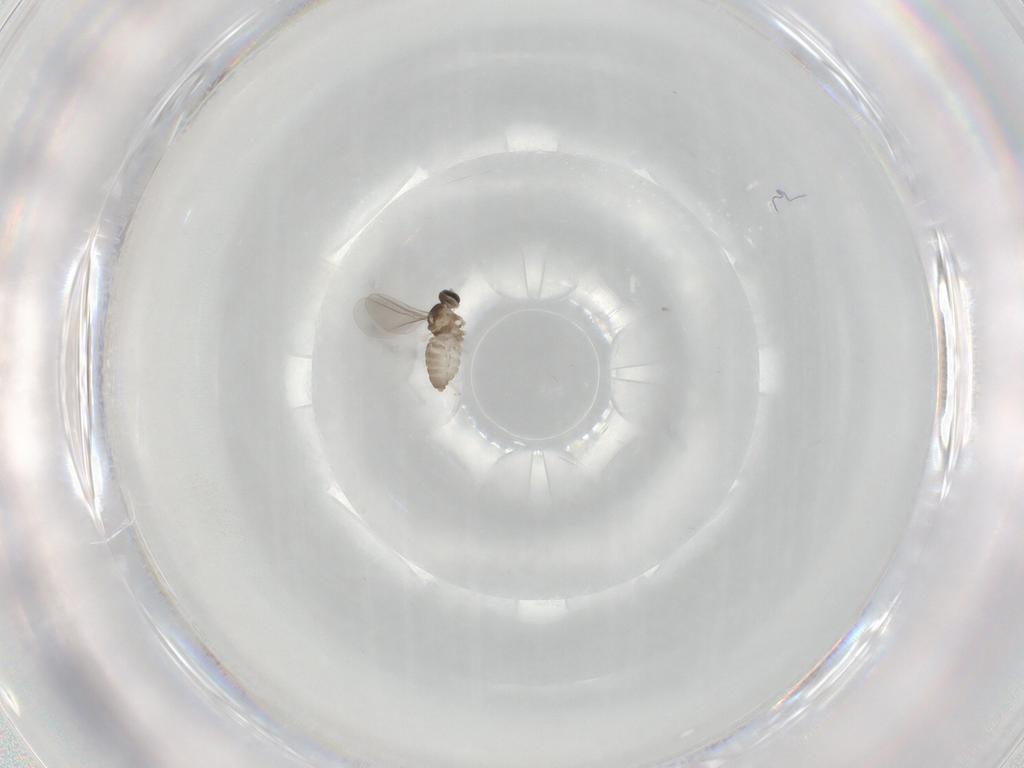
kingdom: Animalia
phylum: Arthropoda
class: Insecta
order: Diptera
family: Cecidomyiidae
